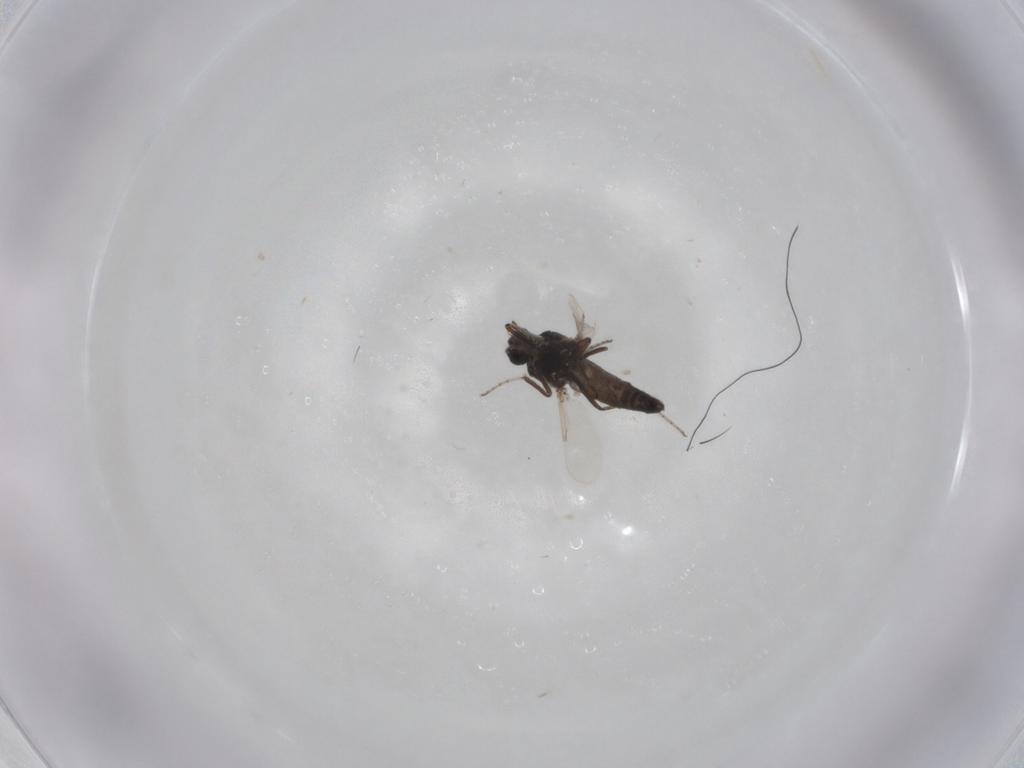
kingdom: Animalia
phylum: Arthropoda
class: Insecta
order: Diptera
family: Ceratopogonidae
